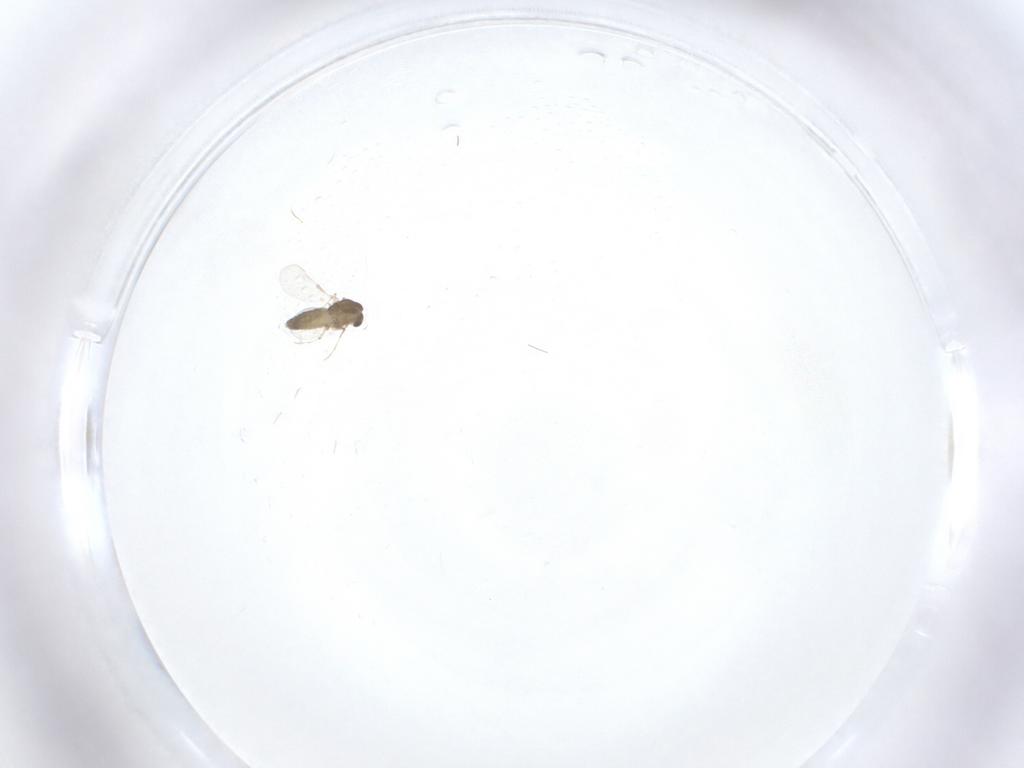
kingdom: Animalia
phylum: Arthropoda
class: Insecta
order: Diptera
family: Chironomidae
